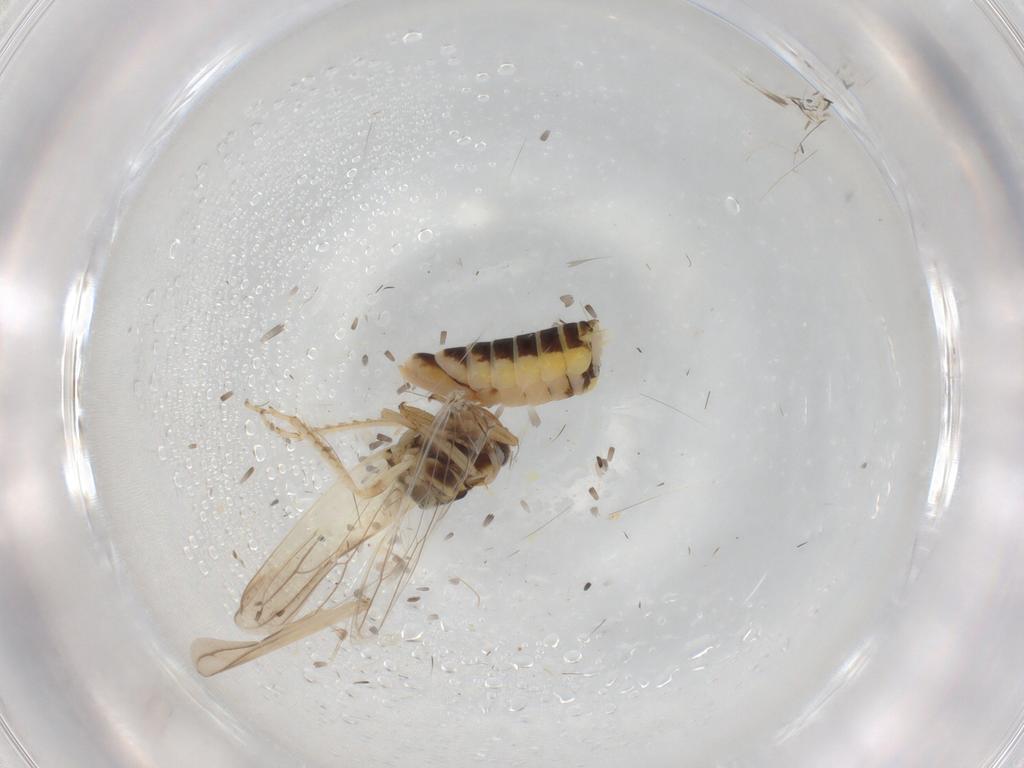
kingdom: Animalia
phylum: Arthropoda
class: Insecta
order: Hemiptera
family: Cicadellidae
